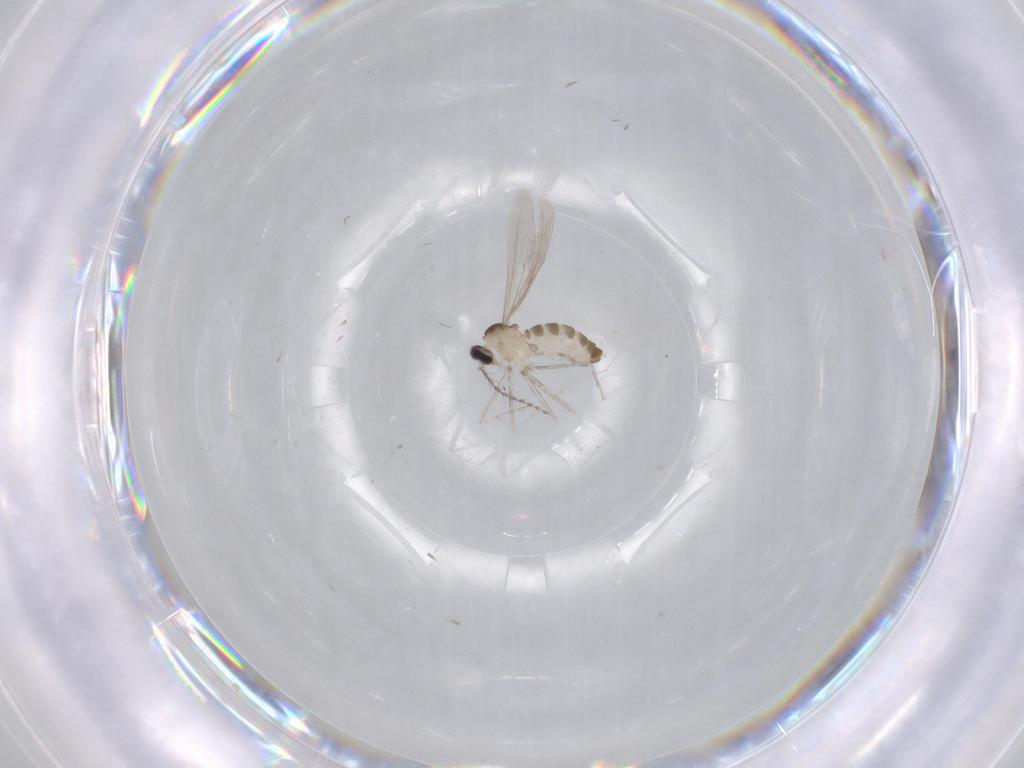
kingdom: Animalia
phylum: Arthropoda
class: Insecta
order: Diptera
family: Cecidomyiidae
